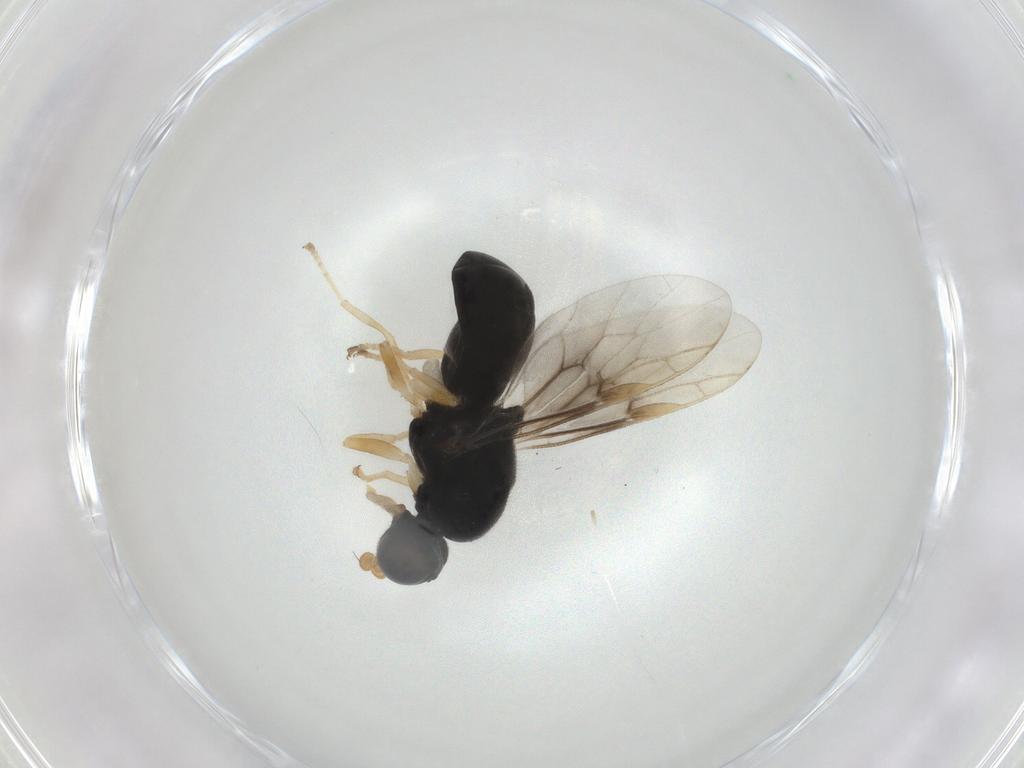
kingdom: Animalia
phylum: Arthropoda
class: Insecta
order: Diptera
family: Stratiomyidae
